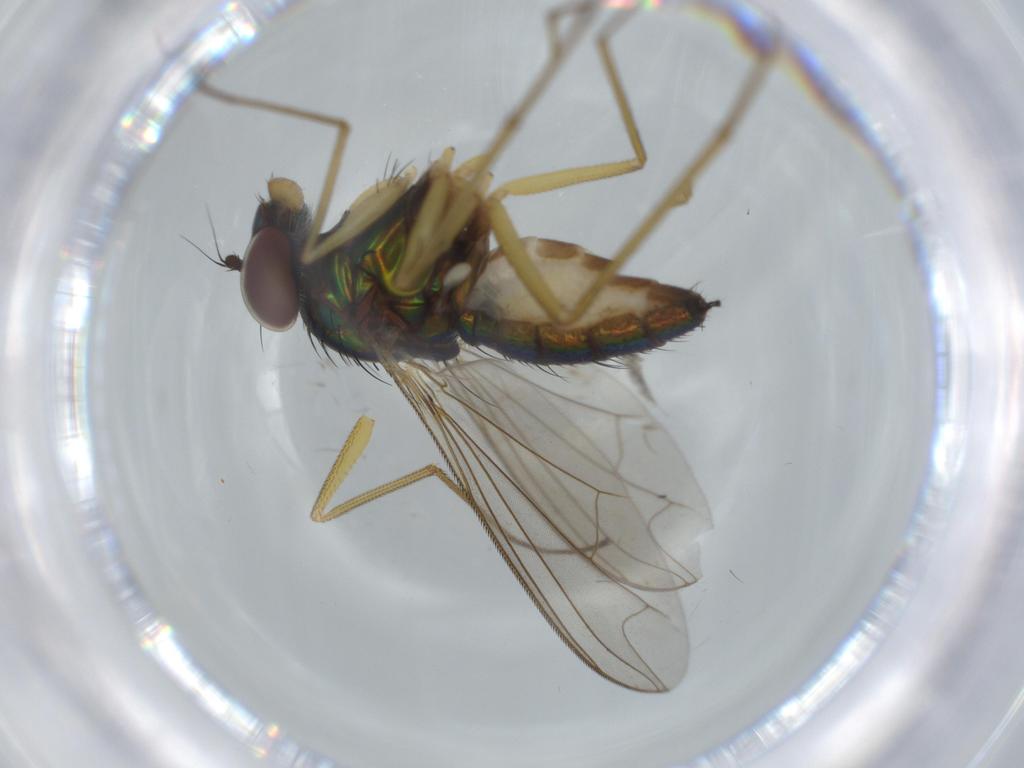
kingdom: Animalia
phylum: Arthropoda
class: Insecta
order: Diptera
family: Dolichopodidae
